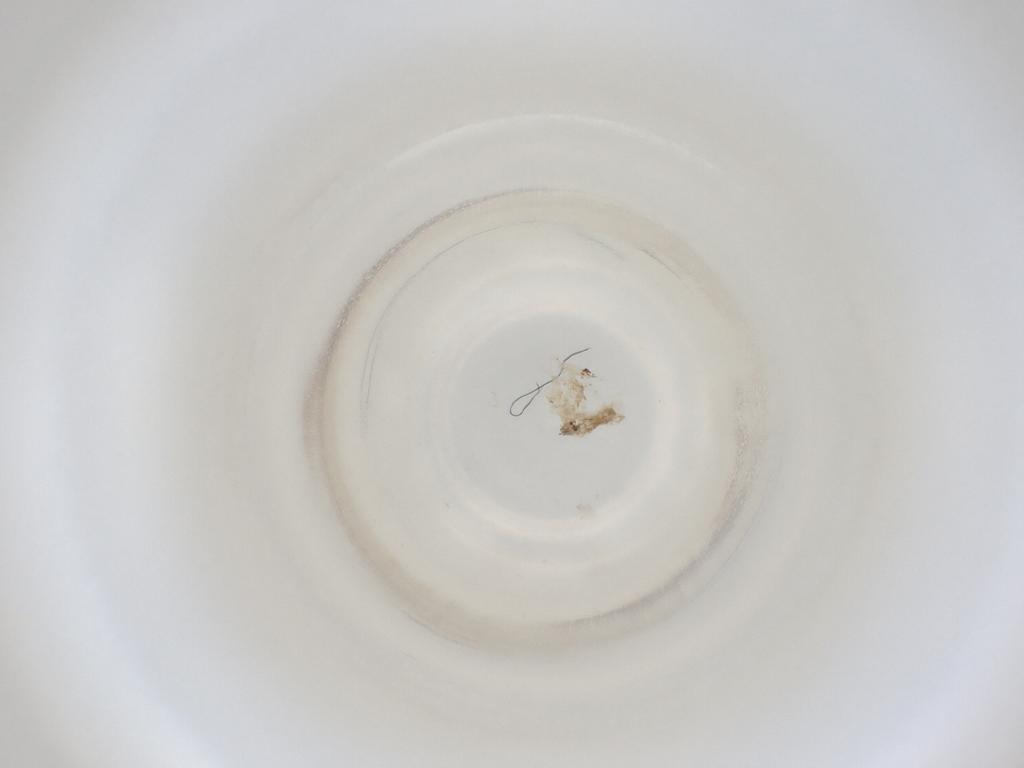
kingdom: Animalia
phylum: Arthropoda
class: Insecta
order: Diptera
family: Cecidomyiidae
